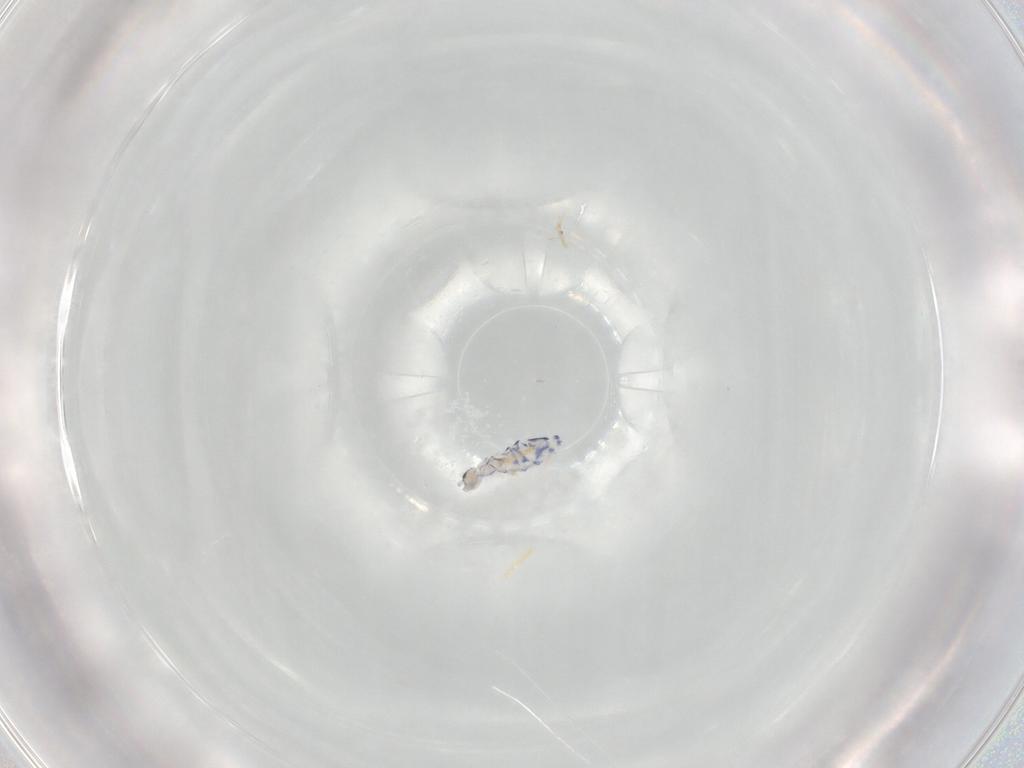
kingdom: Animalia
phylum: Arthropoda
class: Collembola
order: Entomobryomorpha
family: Entomobryidae
